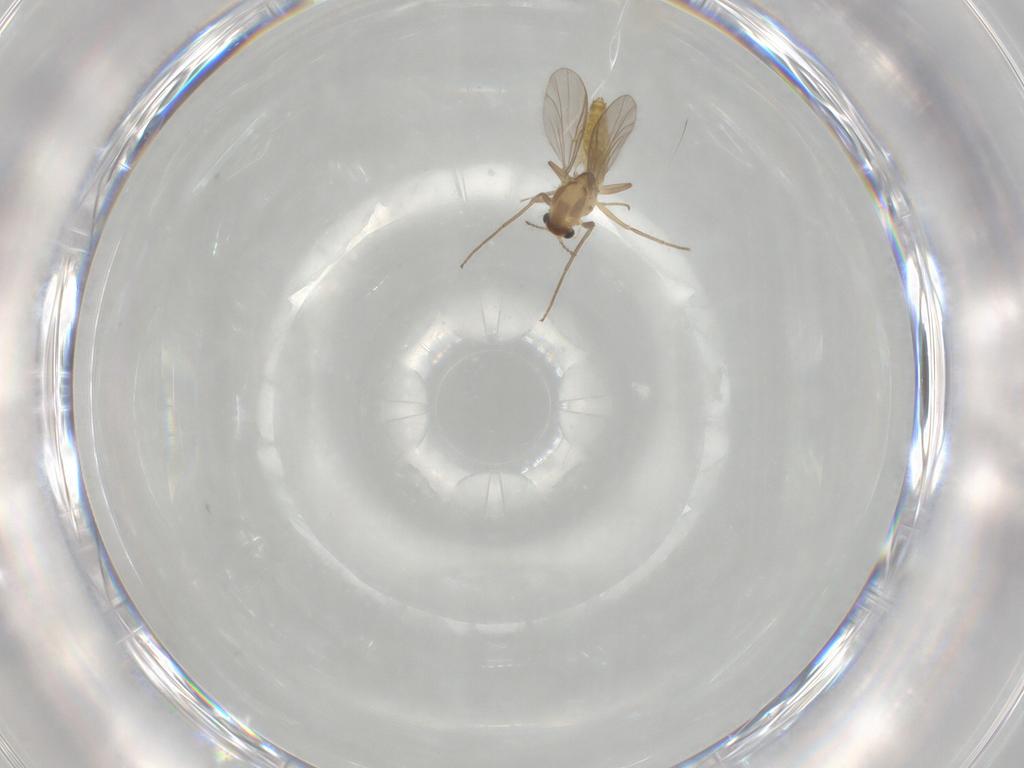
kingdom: Animalia
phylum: Arthropoda
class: Insecta
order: Diptera
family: Chironomidae
